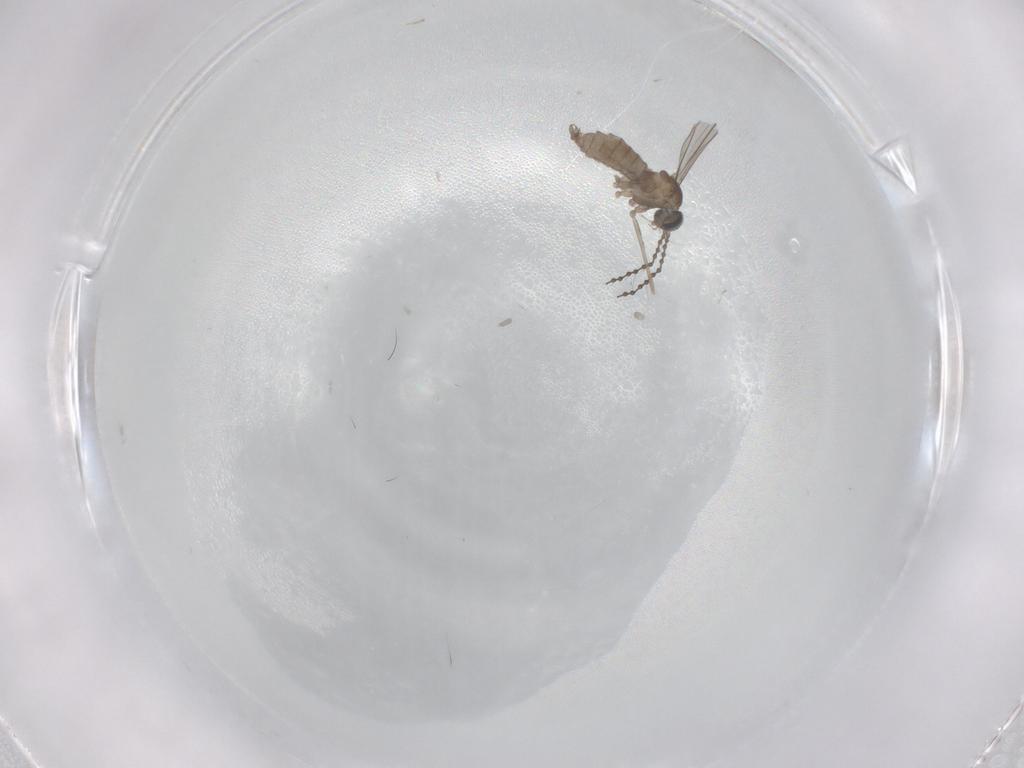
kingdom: Animalia
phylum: Arthropoda
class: Insecta
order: Diptera
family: Cecidomyiidae
